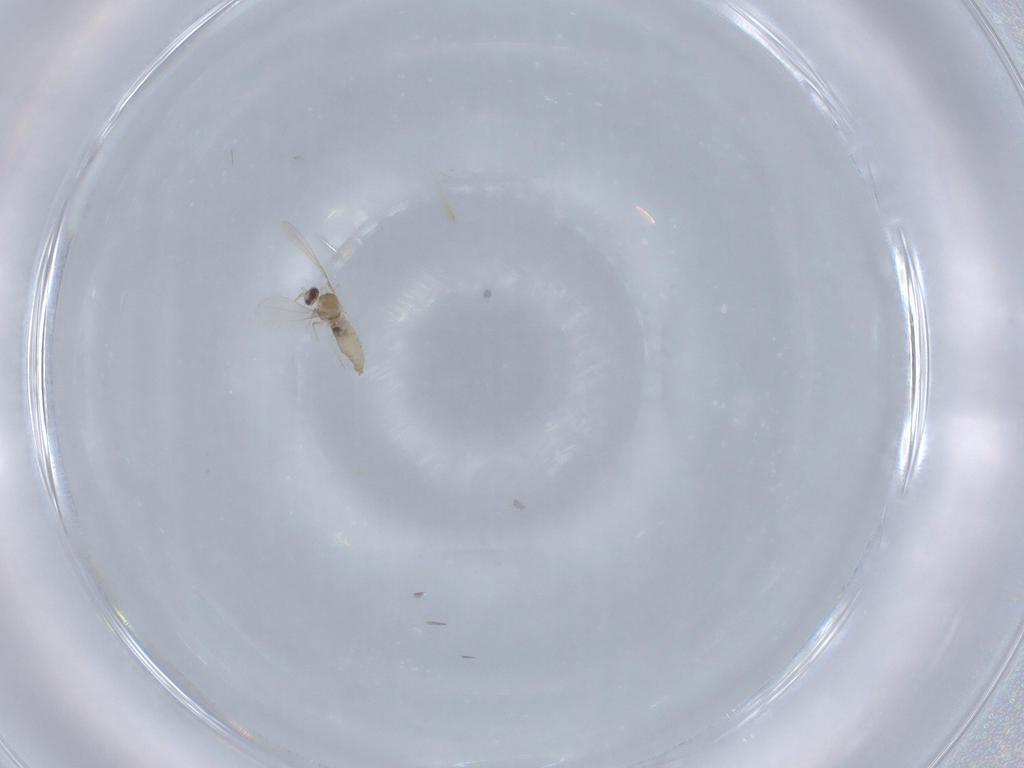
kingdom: Animalia
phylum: Arthropoda
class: Insecta
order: Diptera
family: Cecidomyiidae
